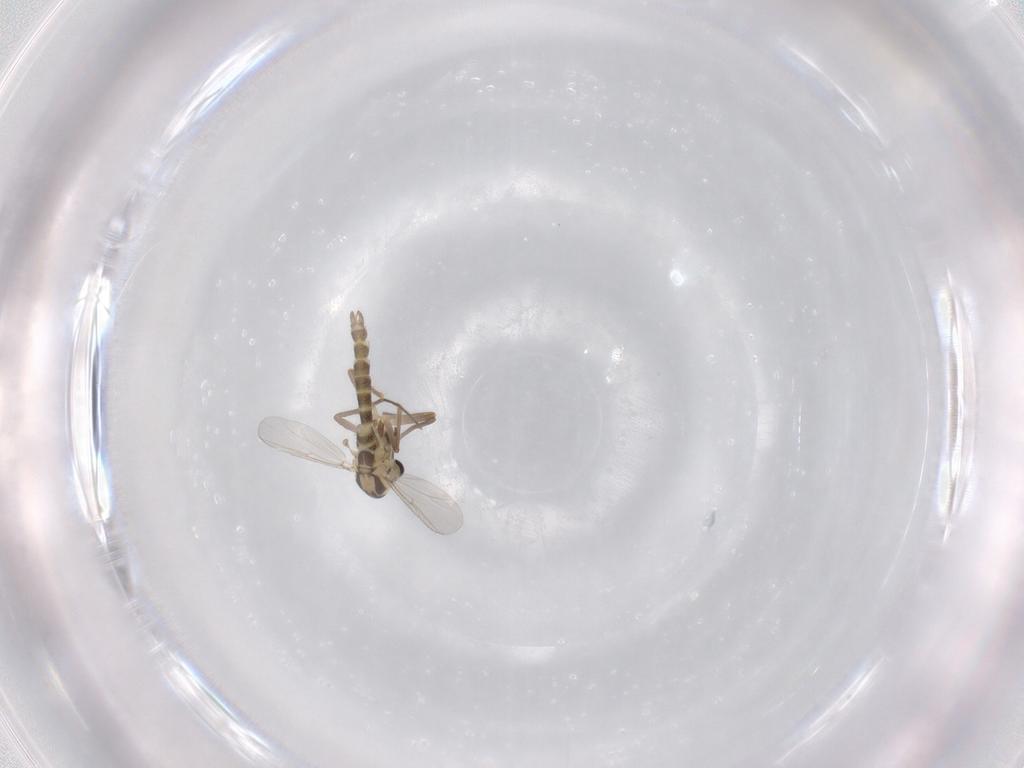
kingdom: Animalia
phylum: Arthropoda
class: Insecta
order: Diptera
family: Chironomidae
